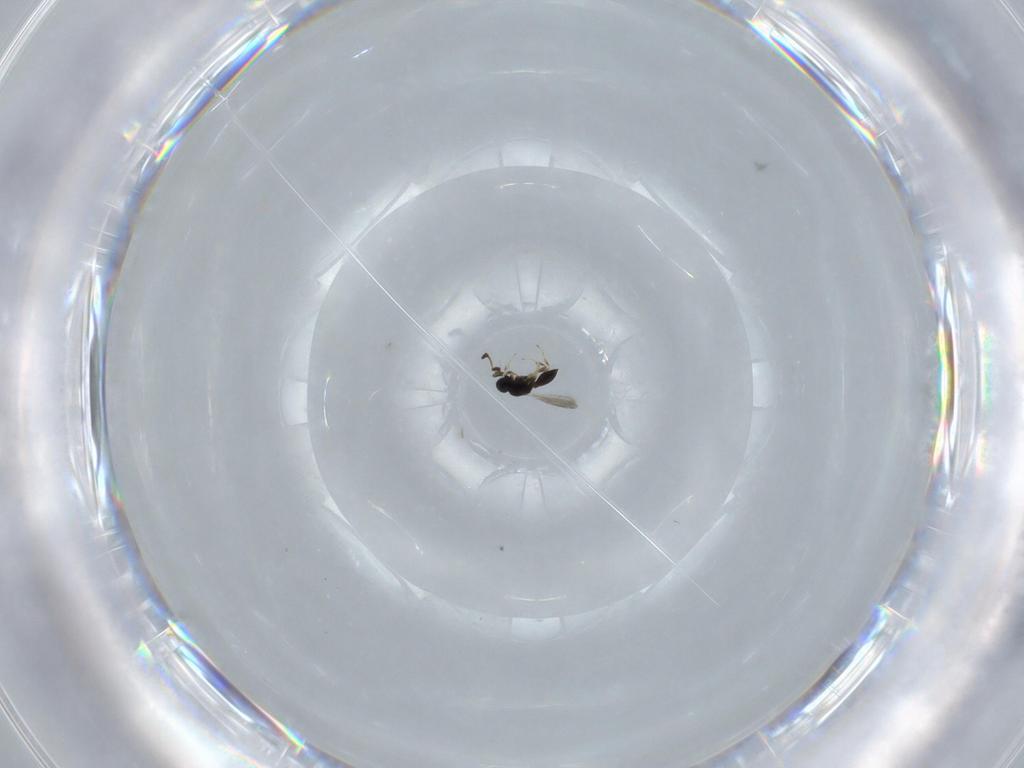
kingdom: Animalia
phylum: Arthropoda
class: Insecta
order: Hymenoptera
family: Scelionidae
